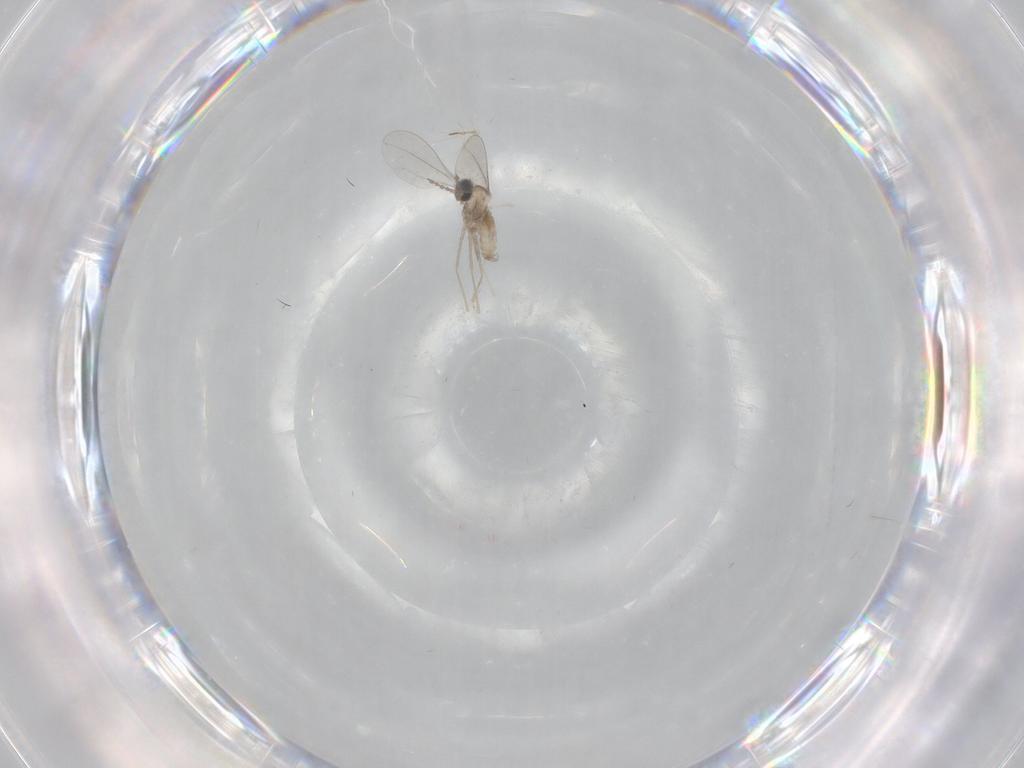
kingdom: Animalia
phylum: Arthropoda
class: Insecta
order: Diptera
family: Chironomidae
